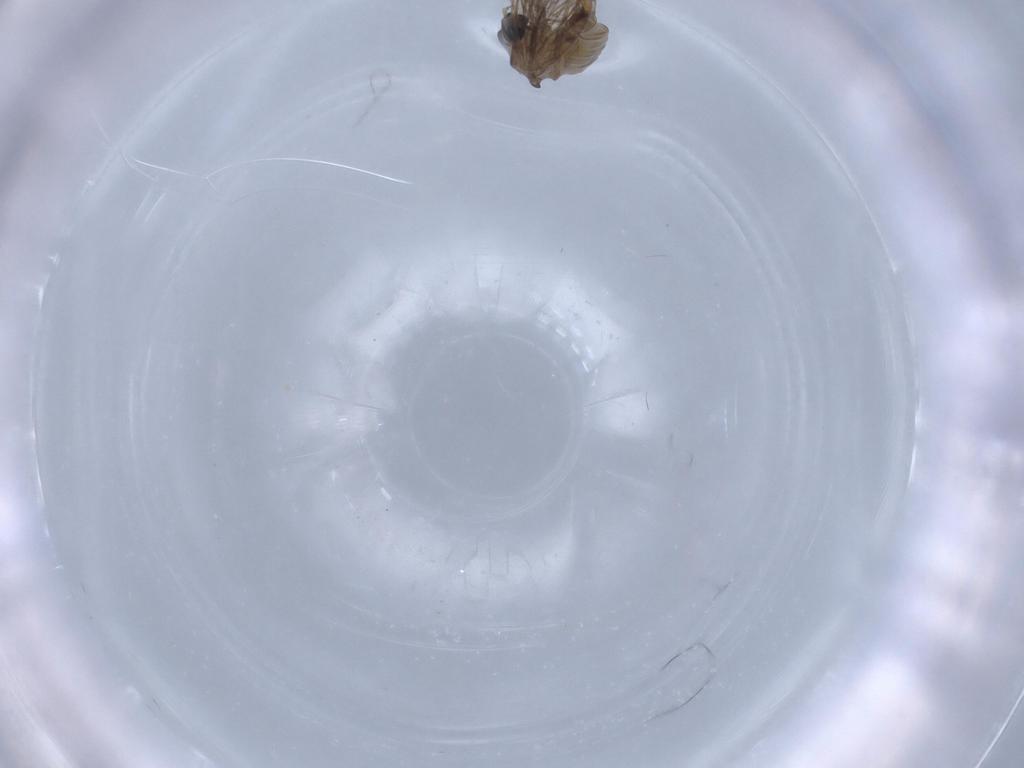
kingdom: Animalia
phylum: Arthropoda
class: Insecta
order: Diptera
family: Psychodidae
